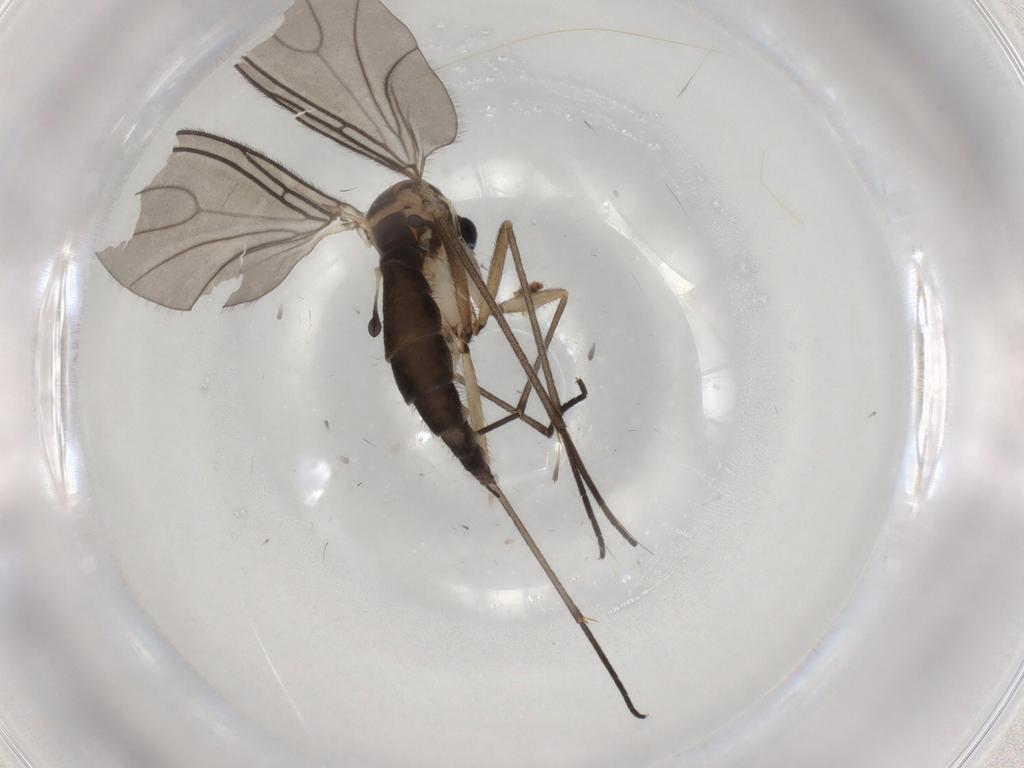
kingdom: Animalia
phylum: Arthropoda
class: Insecta
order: Diptera
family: Sciaridae
